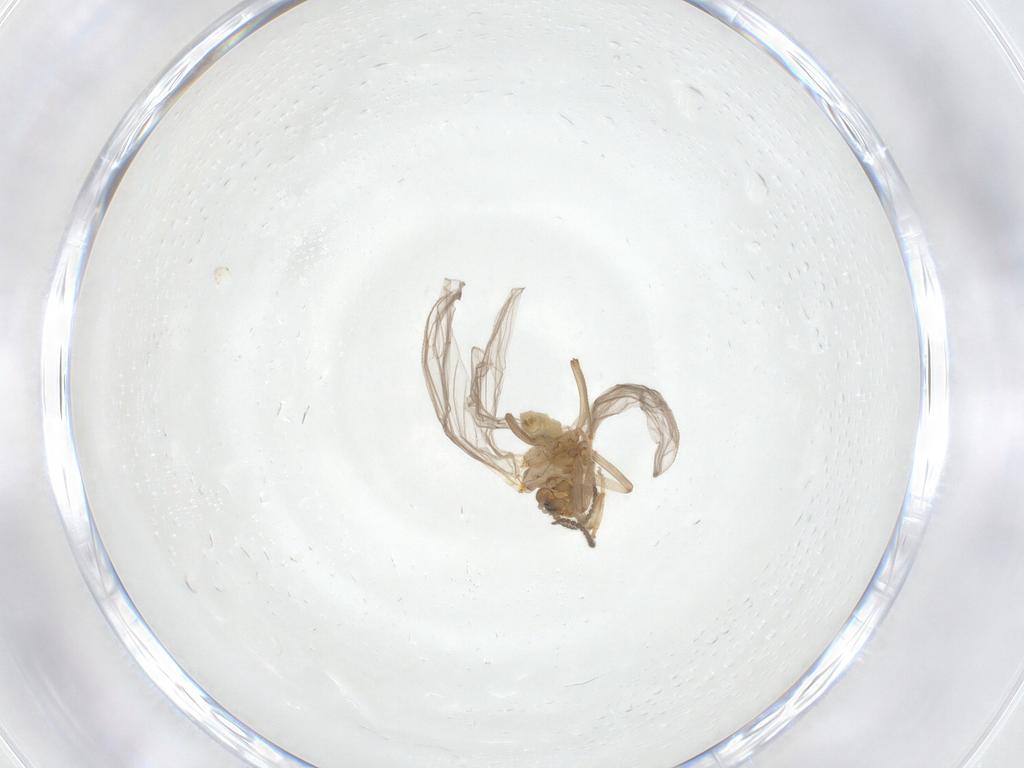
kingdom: Animalia
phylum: Arthropoda
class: Insecta
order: Neuroptera
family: Coniopterygidae
